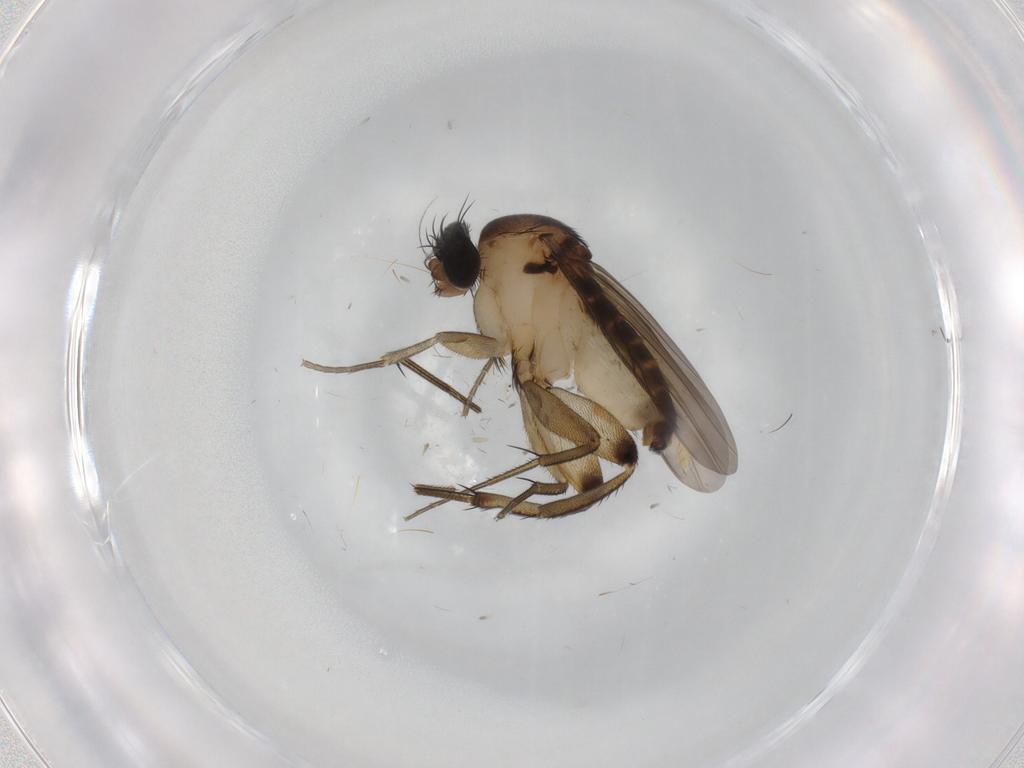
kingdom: Animalia
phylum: Arthropoda
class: Insecta
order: Diptera
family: Phoridae
